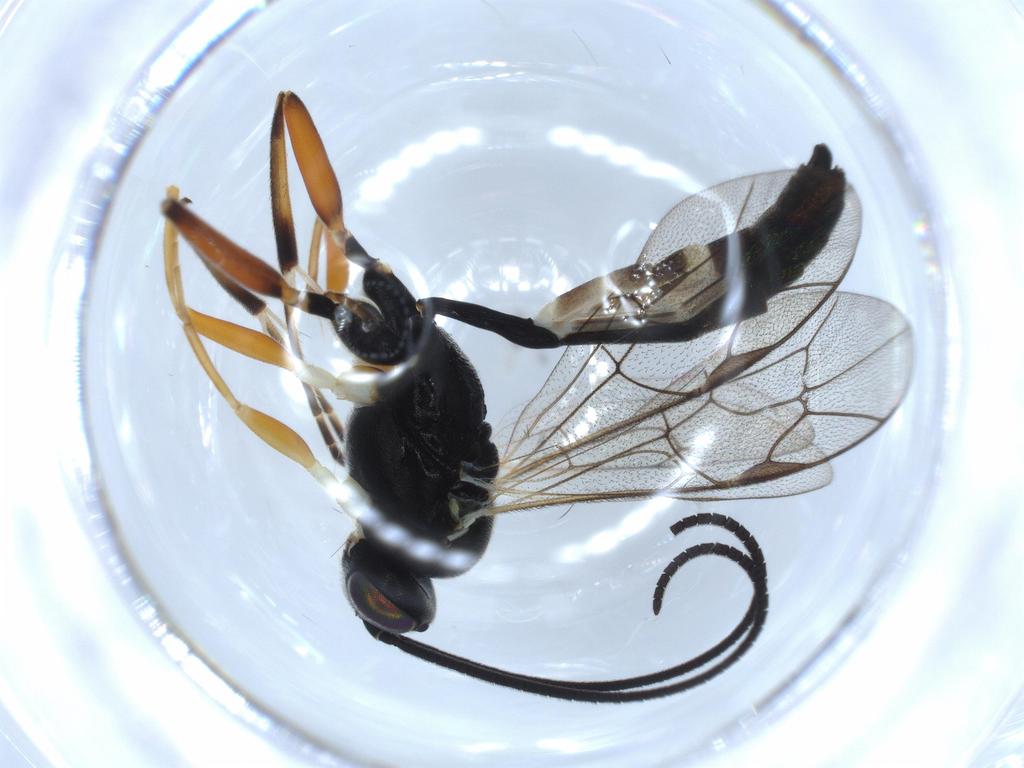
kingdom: Animalia
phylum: Arthropoda
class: Insecta
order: Hymenoptera
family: Ichneumonidae
